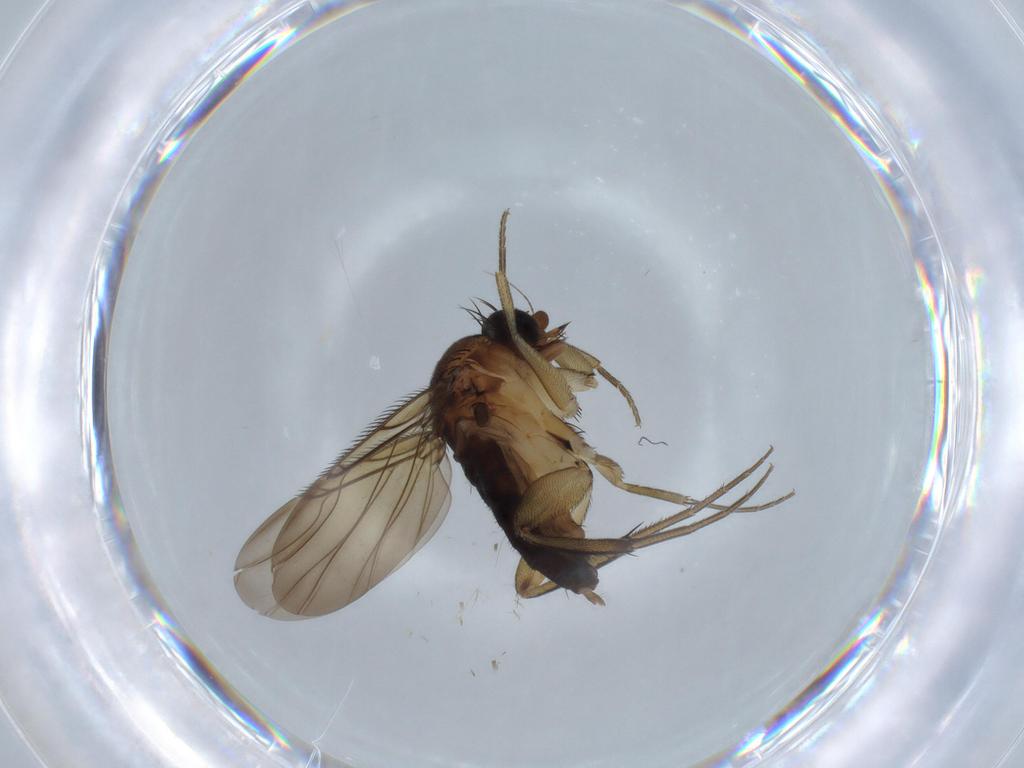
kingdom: Animalia
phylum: Arthropoda
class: Insecta
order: Diptera
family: Phoridae
